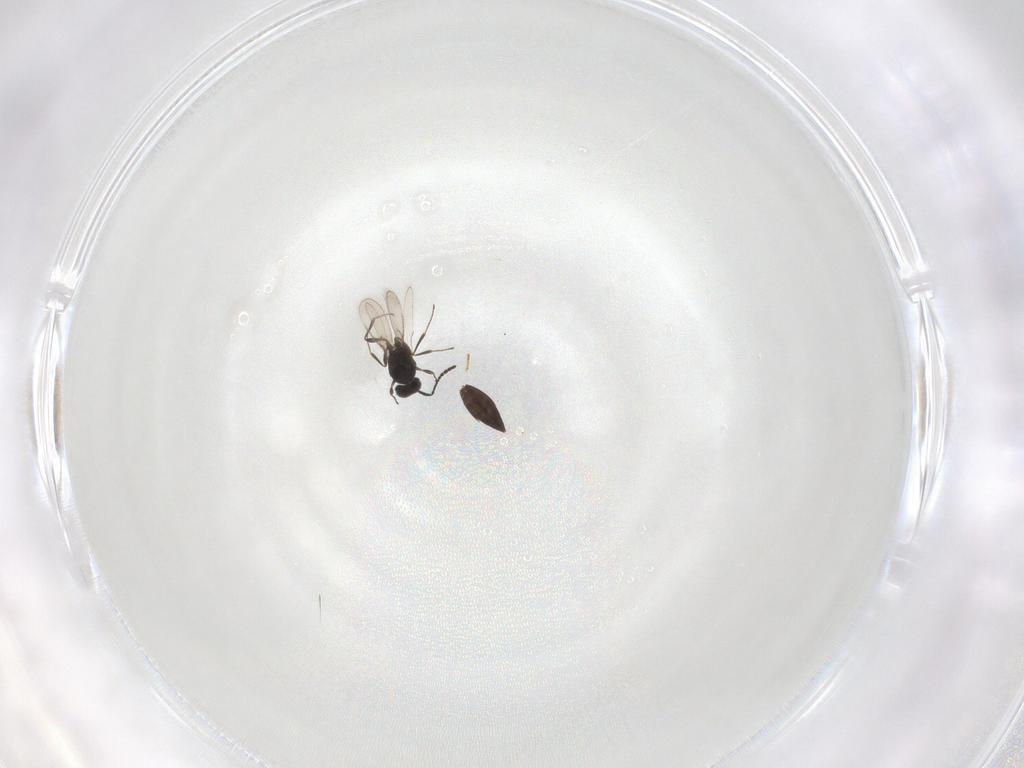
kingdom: Animalia
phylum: Arthropoda
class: Insecta
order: Hymenoptera
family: Scelionidae
